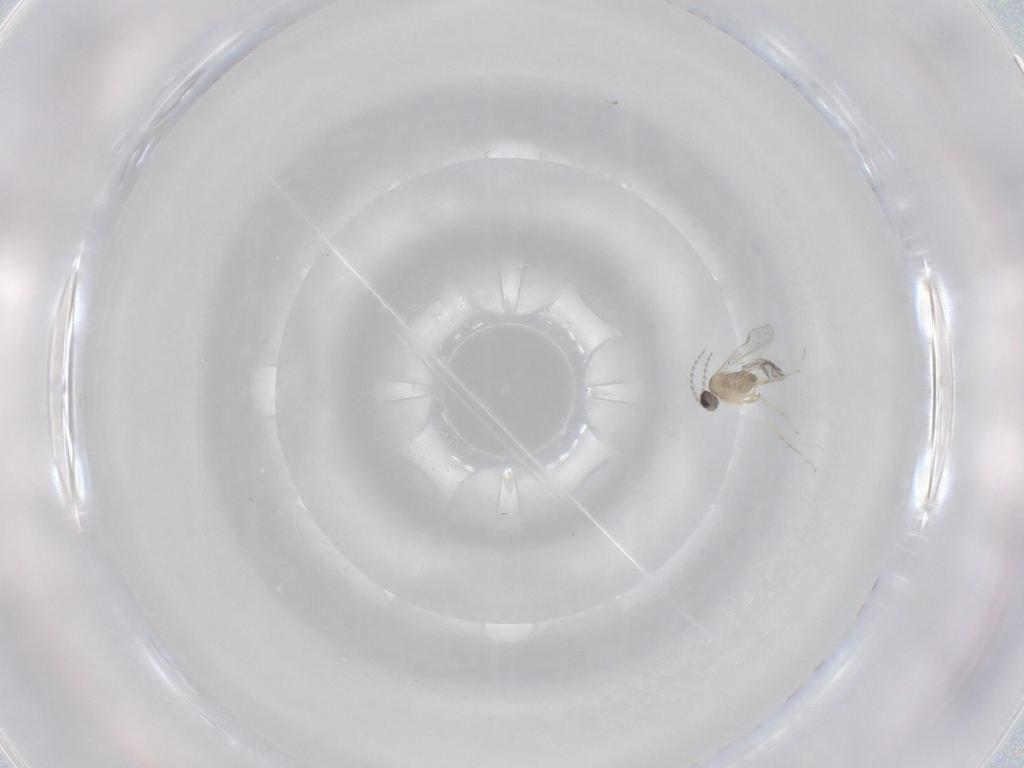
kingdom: Animalia
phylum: Arthropoda
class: Insecta
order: Diptera
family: Cecidomyiidae
